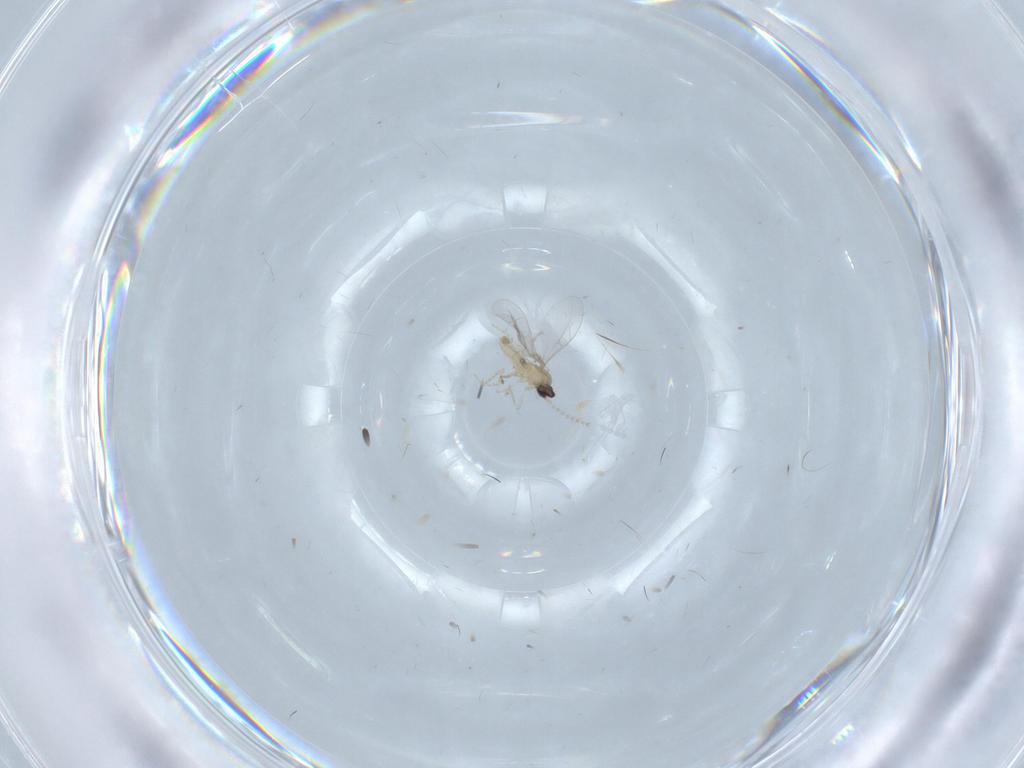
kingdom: Animalia
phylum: Arthropoda
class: Insecta
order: Diptera
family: Cecidomyiidae
